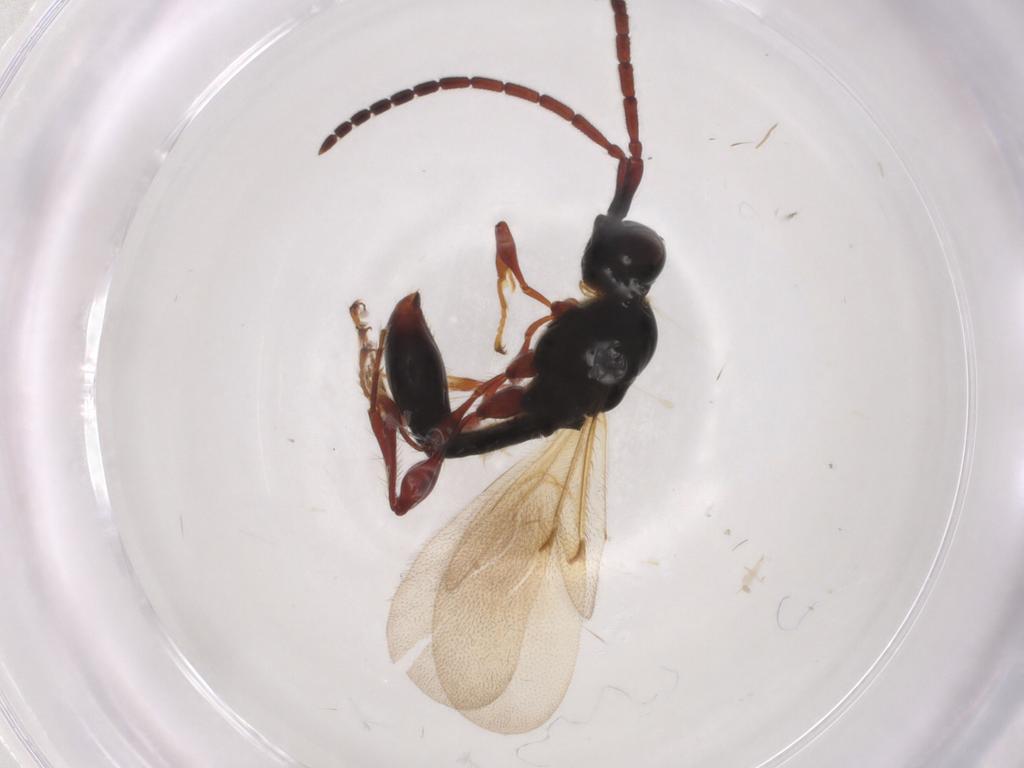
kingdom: Animalia
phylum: Arthropoda
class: Insecta
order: Hymenoptera
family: Diapriidae
